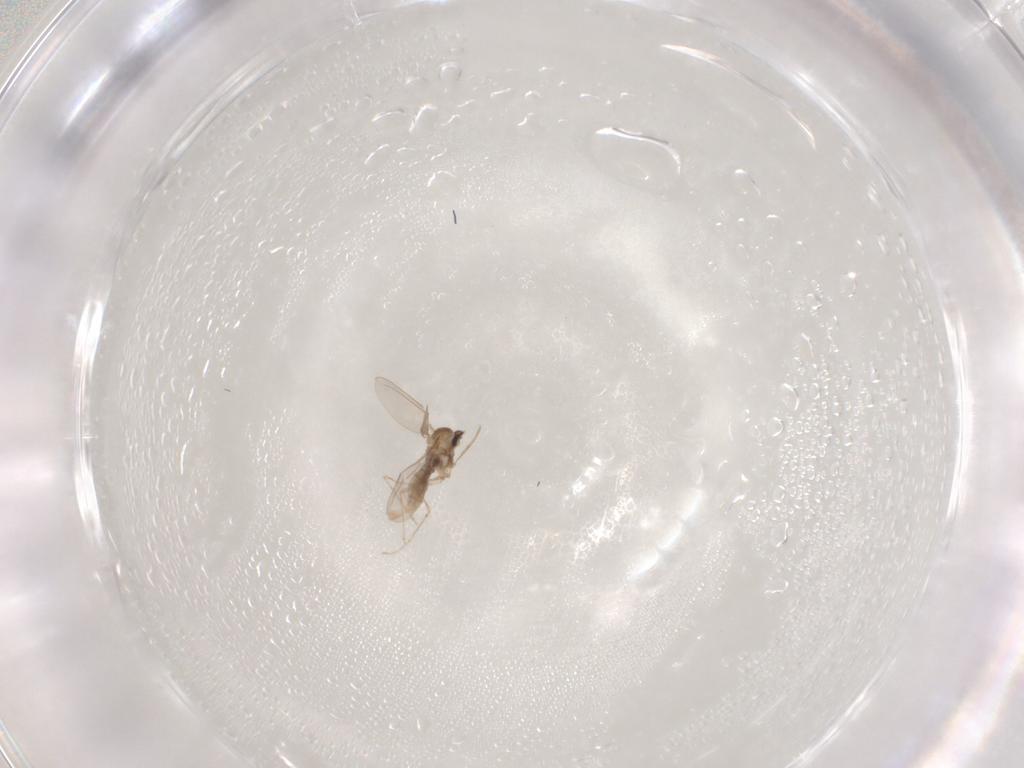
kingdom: Animalia
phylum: Arthropoda
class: Insecta
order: Diptera
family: Cecidomyiidae
